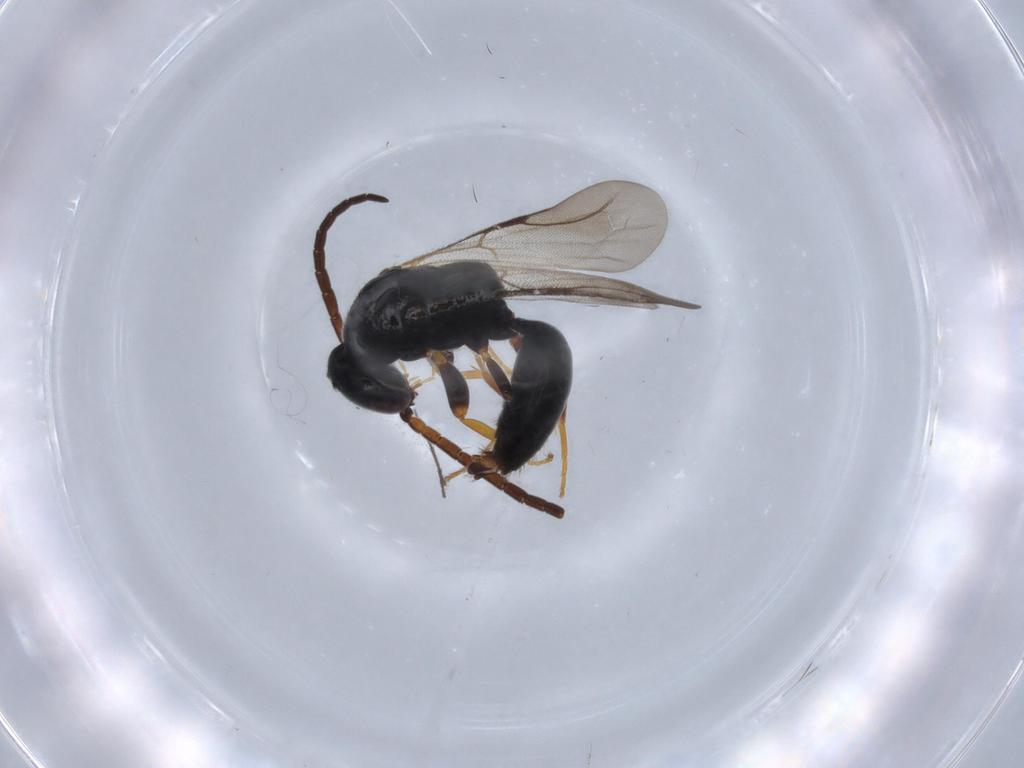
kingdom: Animalia
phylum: Arthropoda
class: Insecta
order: Hymenoptera
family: Bethylidae
